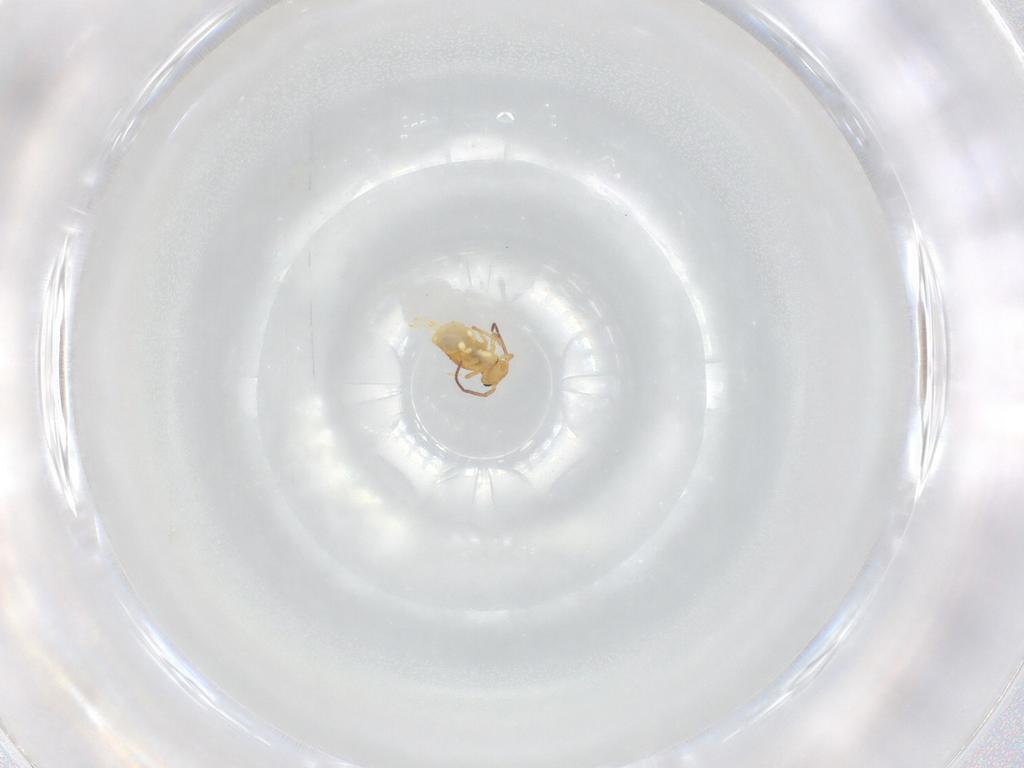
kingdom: Animalia
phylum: Arthropoda
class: Collembola
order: Symphypleona
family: Bourletiellidae
